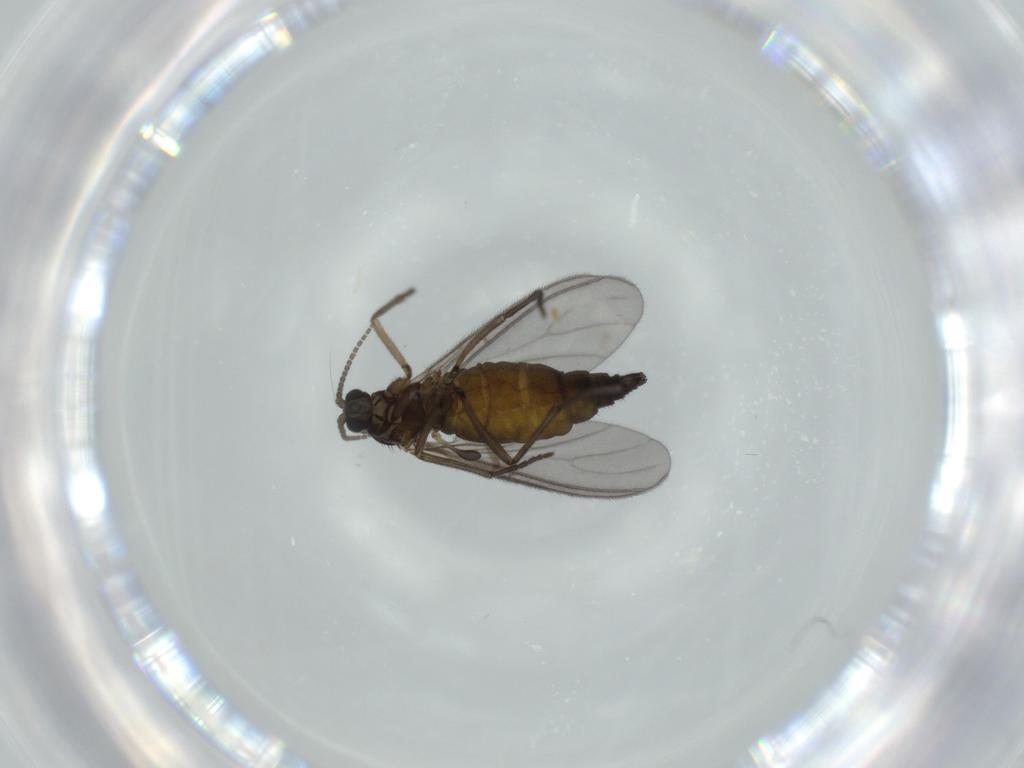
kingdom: Animalia
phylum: Arthropoda
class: Insecta
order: Diptera
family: Sciaridae
